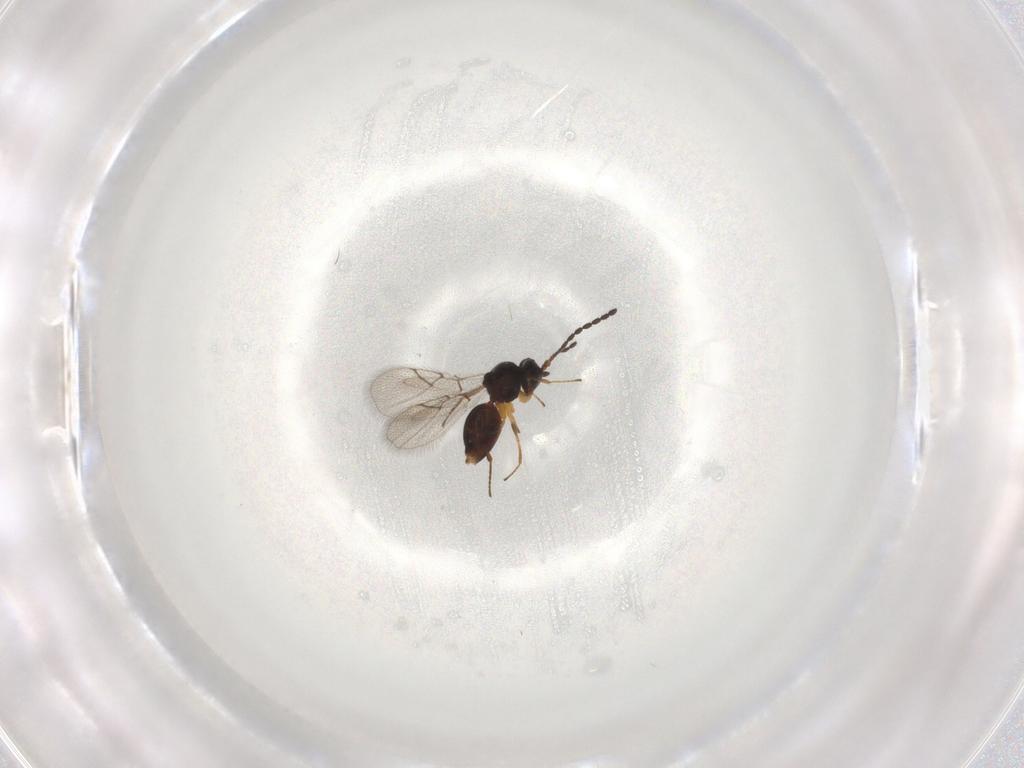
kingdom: Animalia
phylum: Arthropoda
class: Insecta
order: Hymenoptera
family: Figitidae
